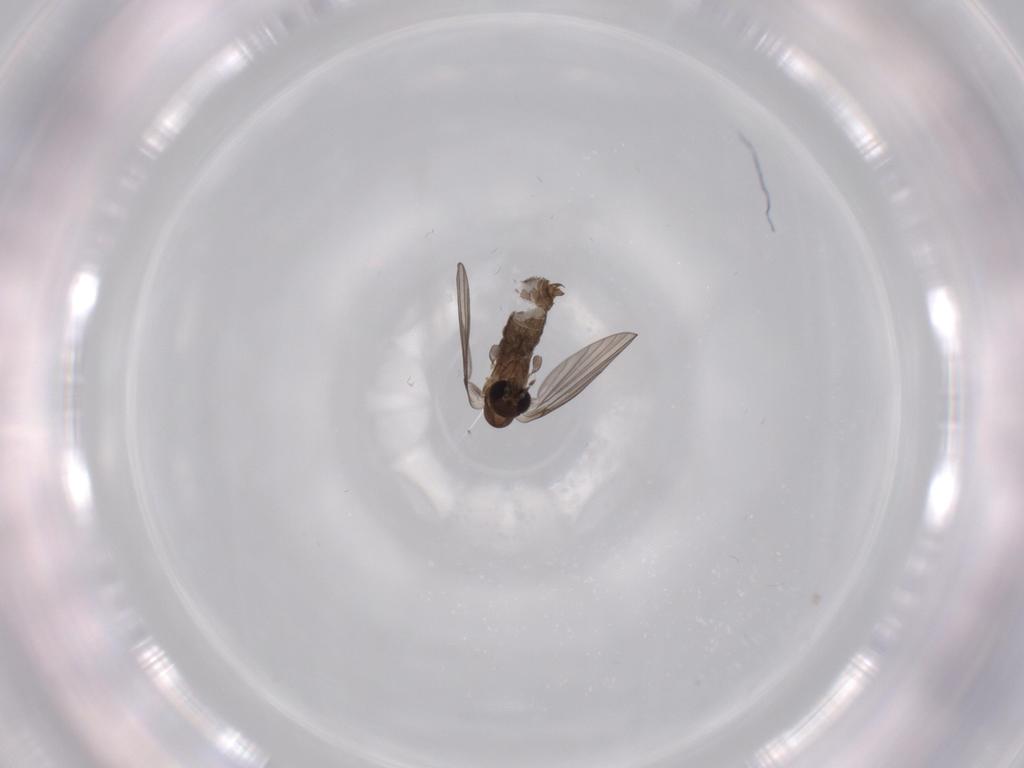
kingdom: Animalia
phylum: Arthropoda
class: Insecta
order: Diptera
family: Psychodidae
